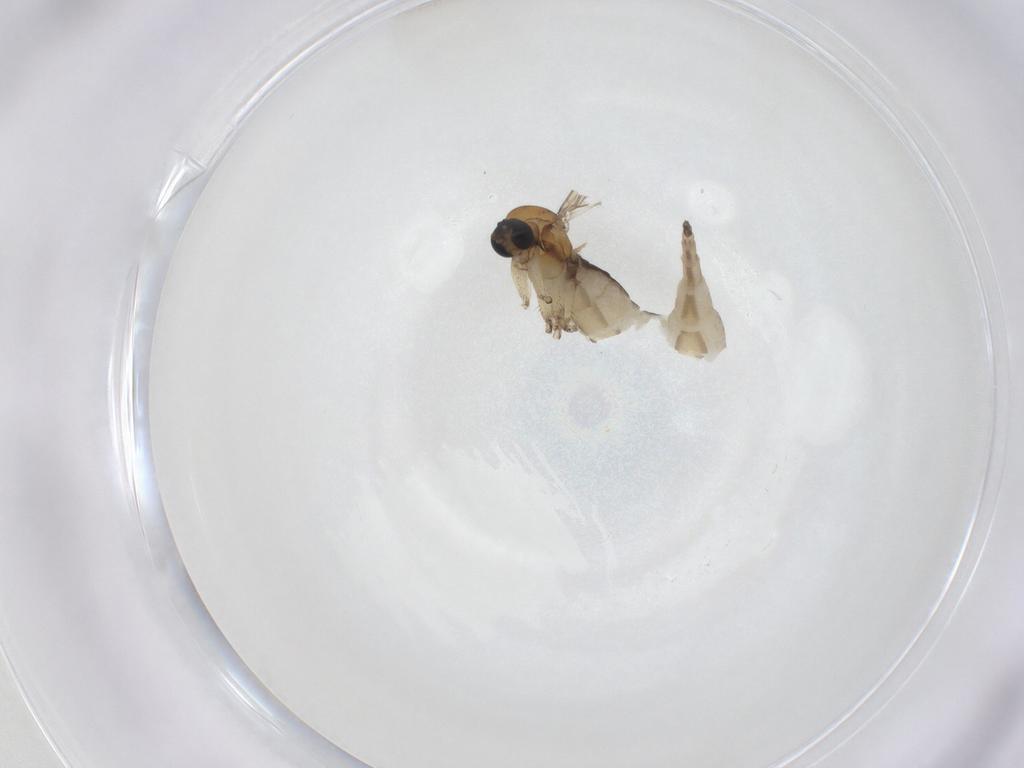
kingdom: Animalia
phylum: Arthropoda
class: Insecta
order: Diptera
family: Sciaridae
